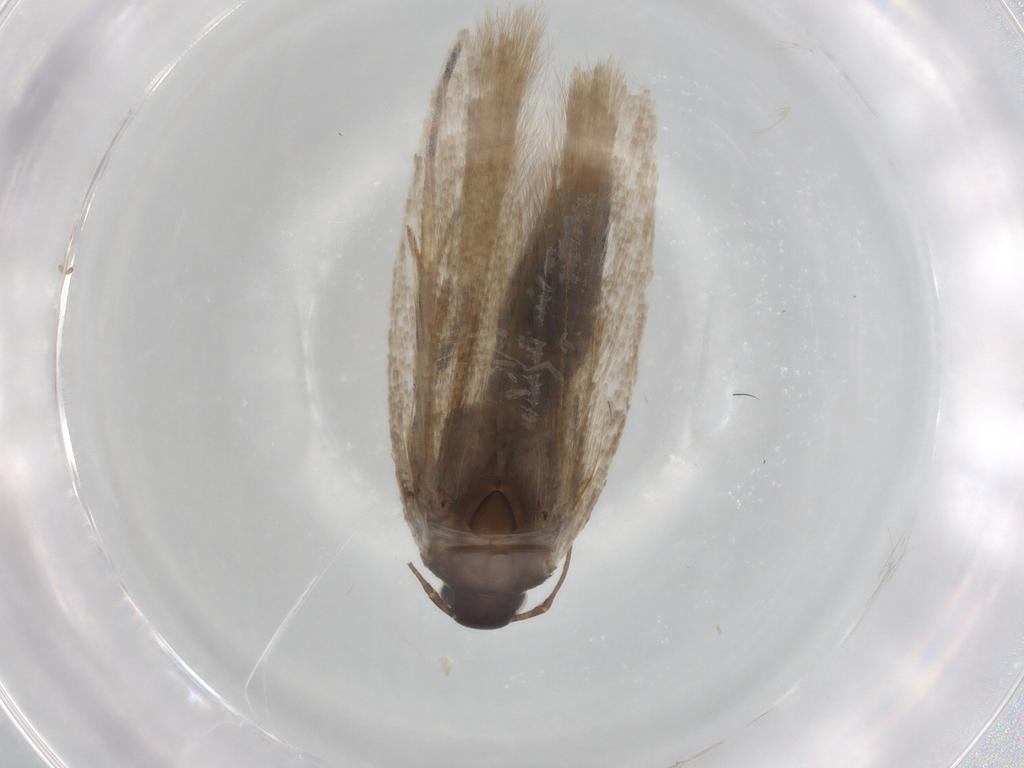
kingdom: Animalia
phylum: Arthropoda
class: Insecta
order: Lepidoptera
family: Gelechiidae
